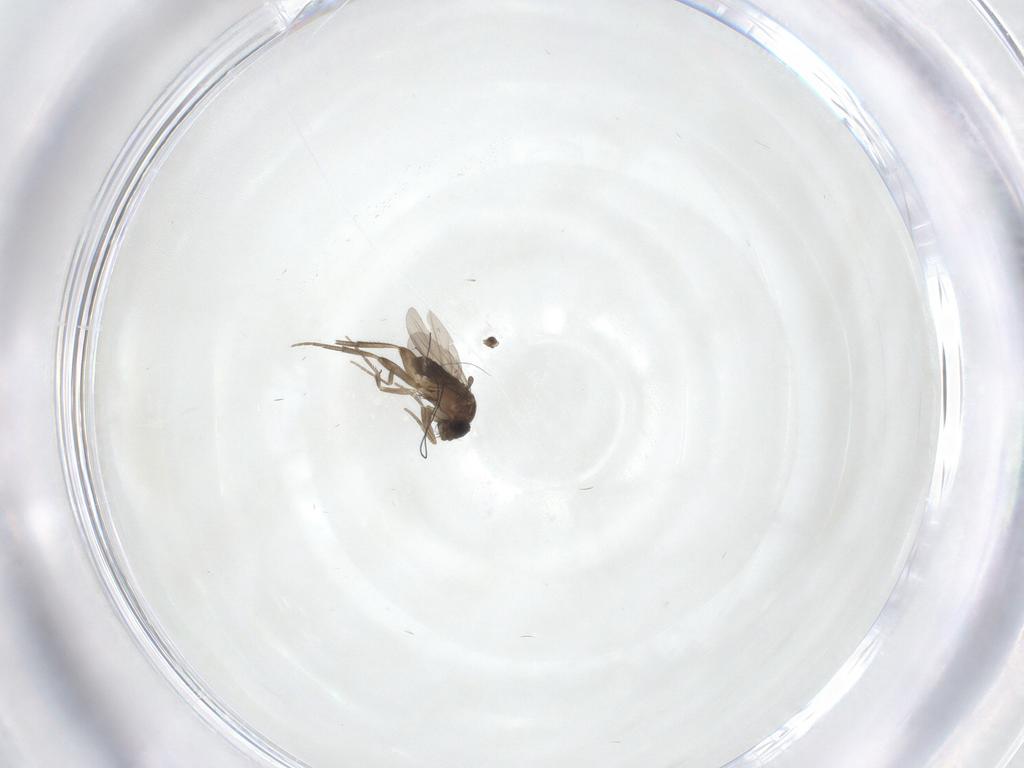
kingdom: Animalia
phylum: Arthropoda
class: Insecta
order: Diptera
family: Phoridae
